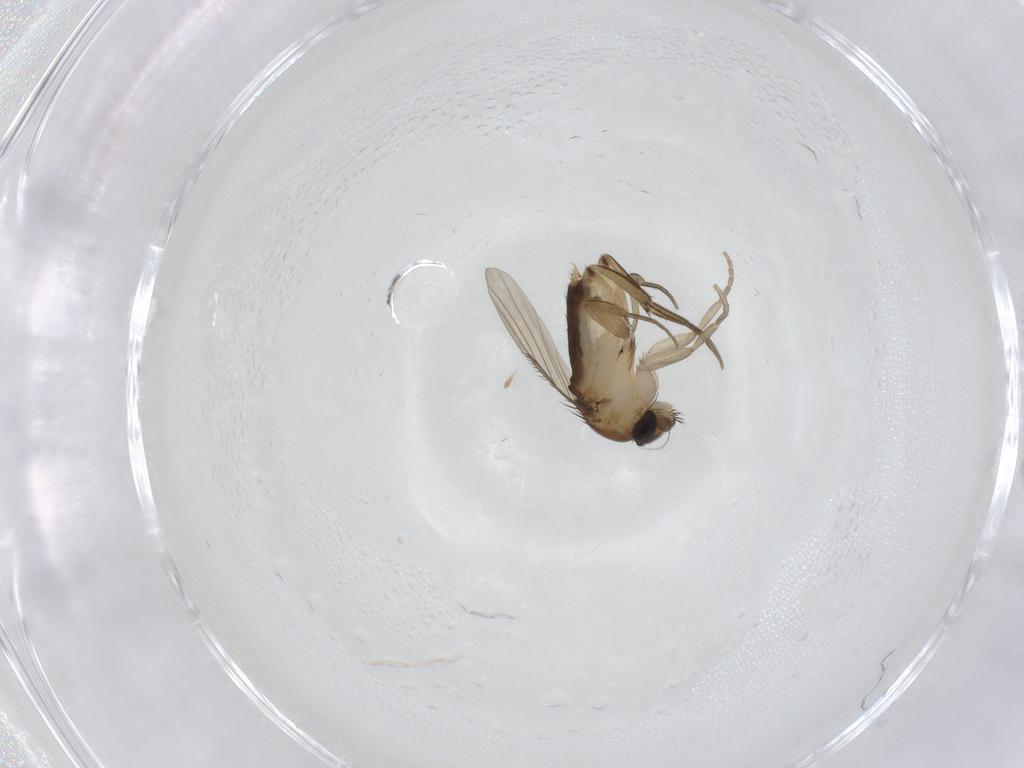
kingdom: Animalia
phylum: Arthropoda
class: Insecta
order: Diptera
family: Phoridae
